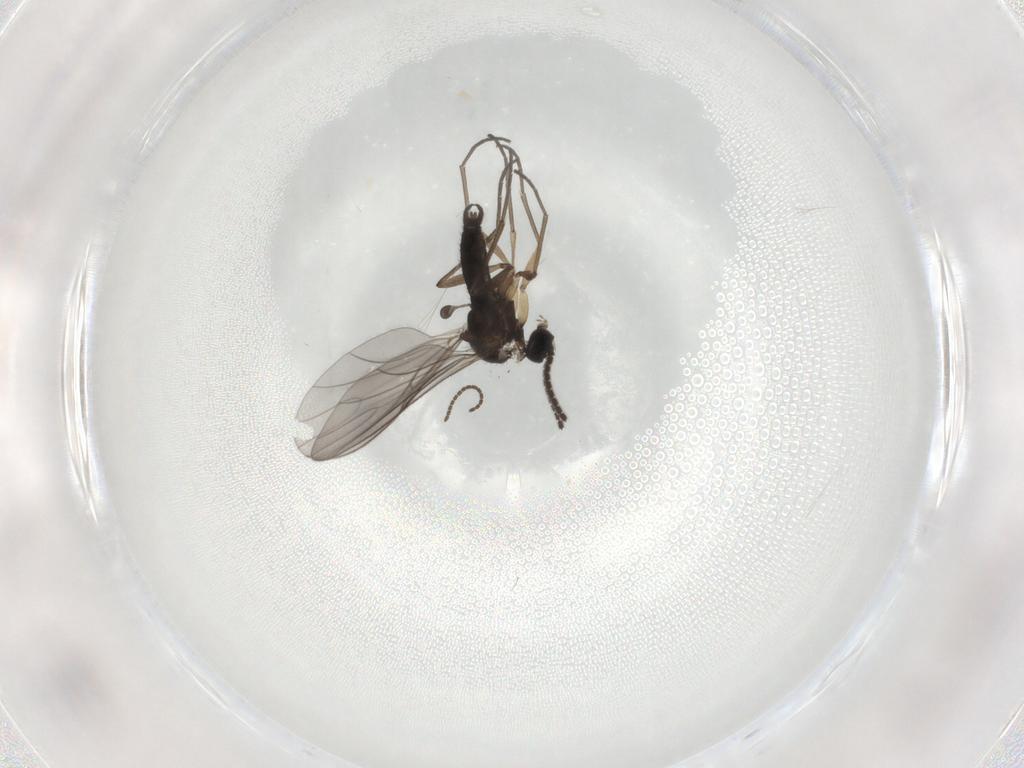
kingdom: Animalia
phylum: Arthropoda
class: Insecta
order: Diptera
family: Sciaridae
